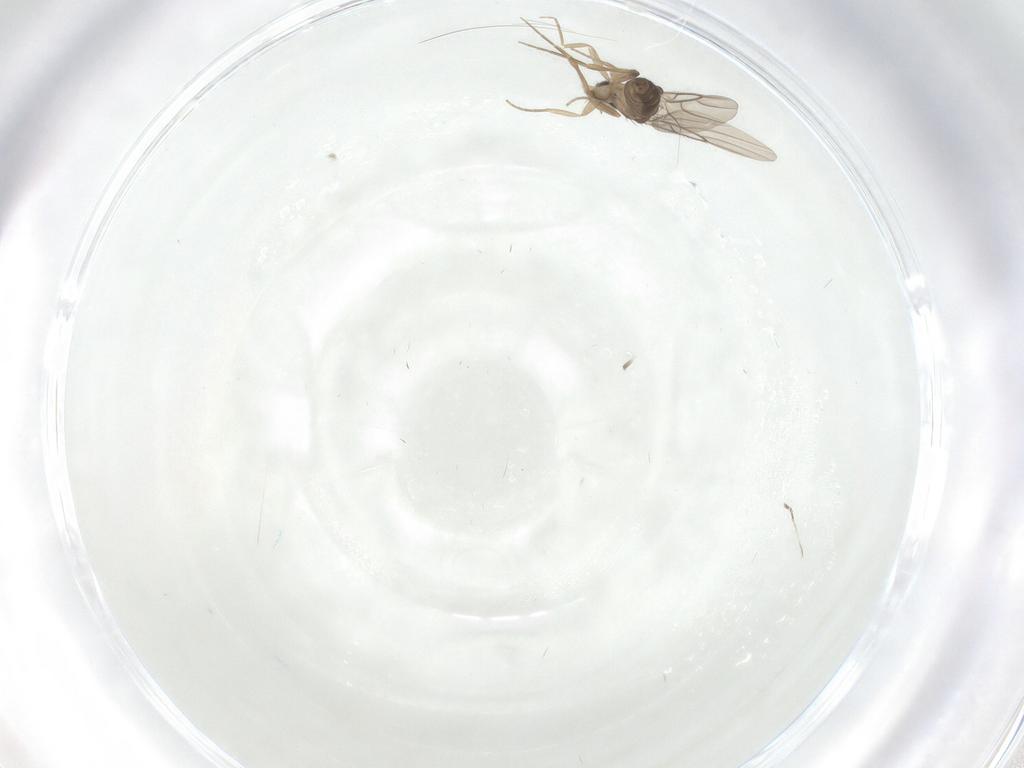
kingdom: Animalia
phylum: Arthropoda
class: Insecta
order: Diptera
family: Phoridae
